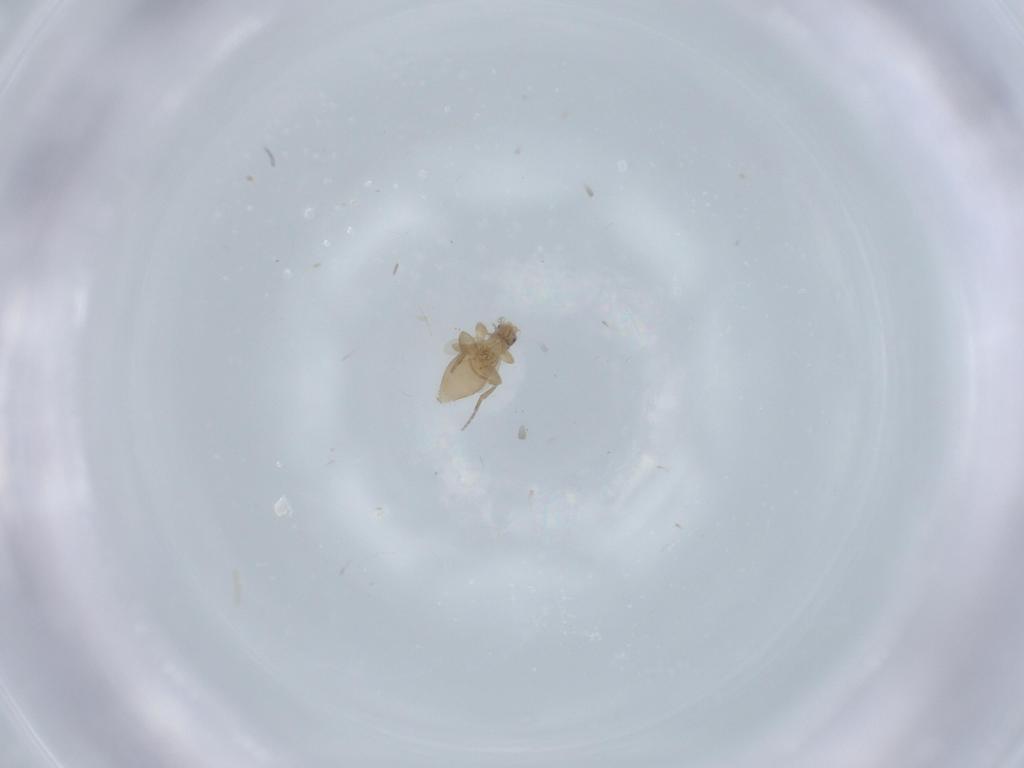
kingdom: Animalia
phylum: Arthropoda
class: Insecta
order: Diptera
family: Phoridae
